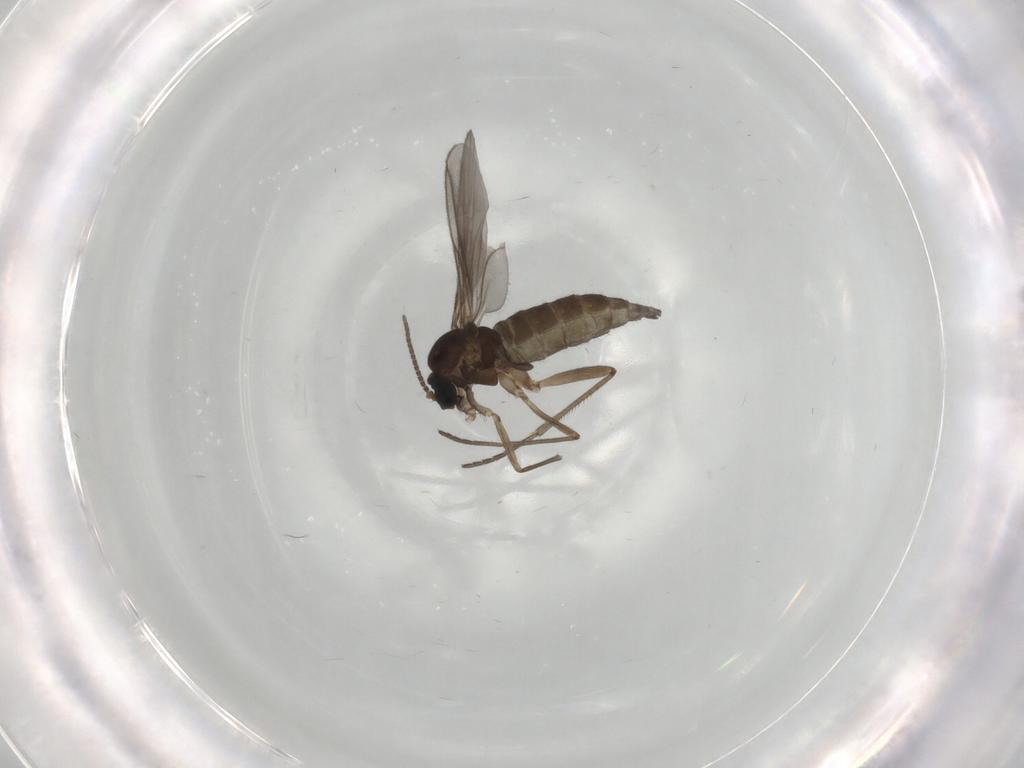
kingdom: Animalia
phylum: Arthropoda
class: Insecta
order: Diptera
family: Sciaridae
